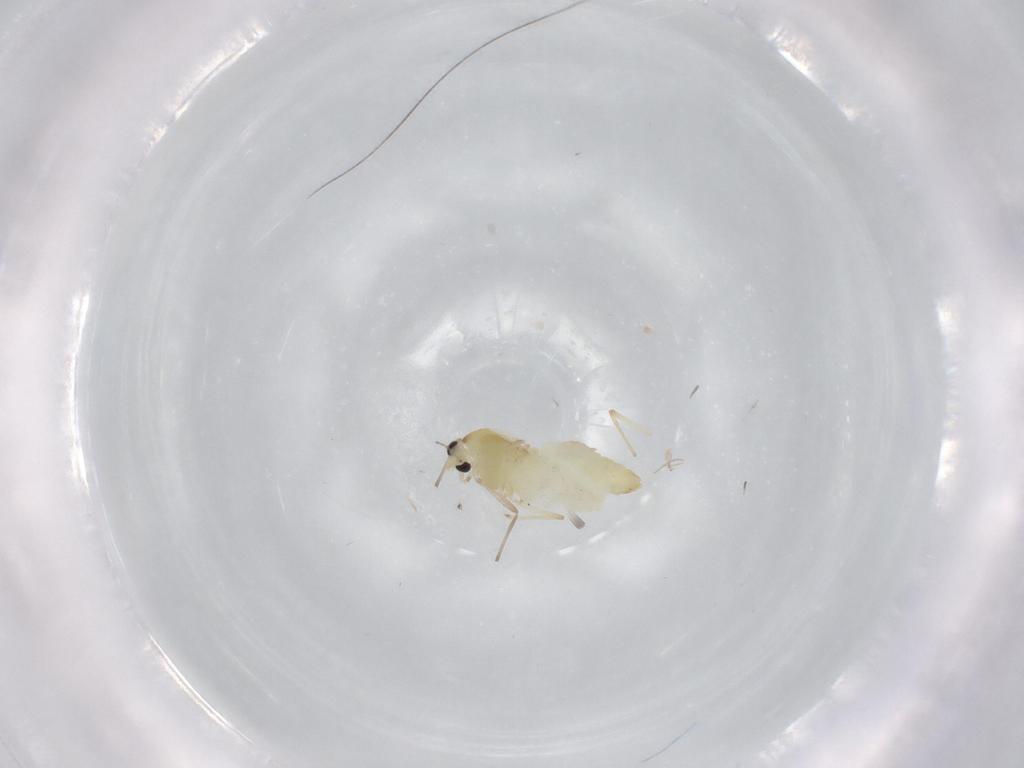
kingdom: Animalia
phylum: Arthropoda
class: Insecta
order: Diptera
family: Chironomidae
